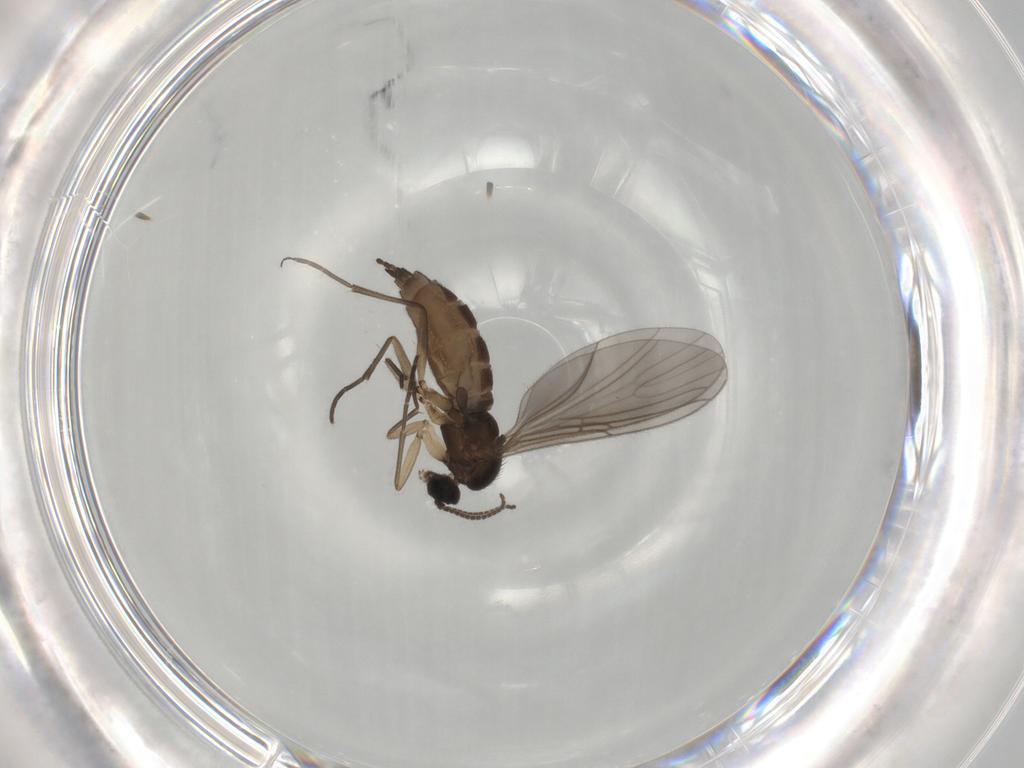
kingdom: Animalia
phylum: Arthropoda
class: Insecta
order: Diptera
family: Sciaridae
